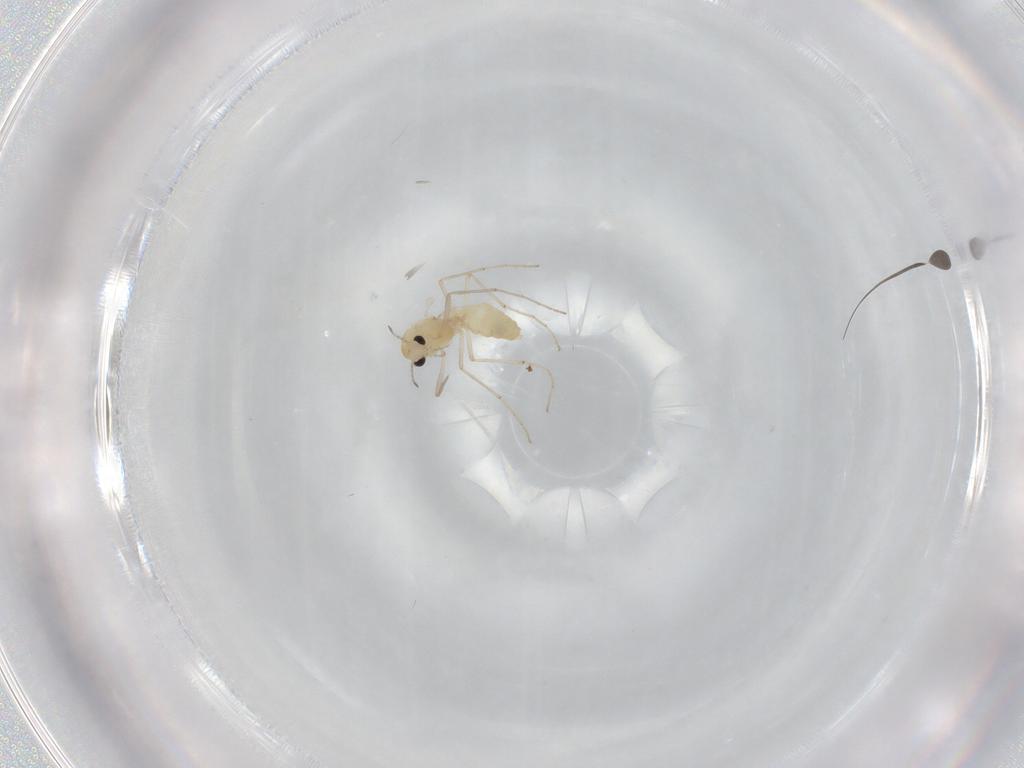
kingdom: Animalia
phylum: Arthropoda
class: Insecta
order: Diptera
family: Chironomidae
